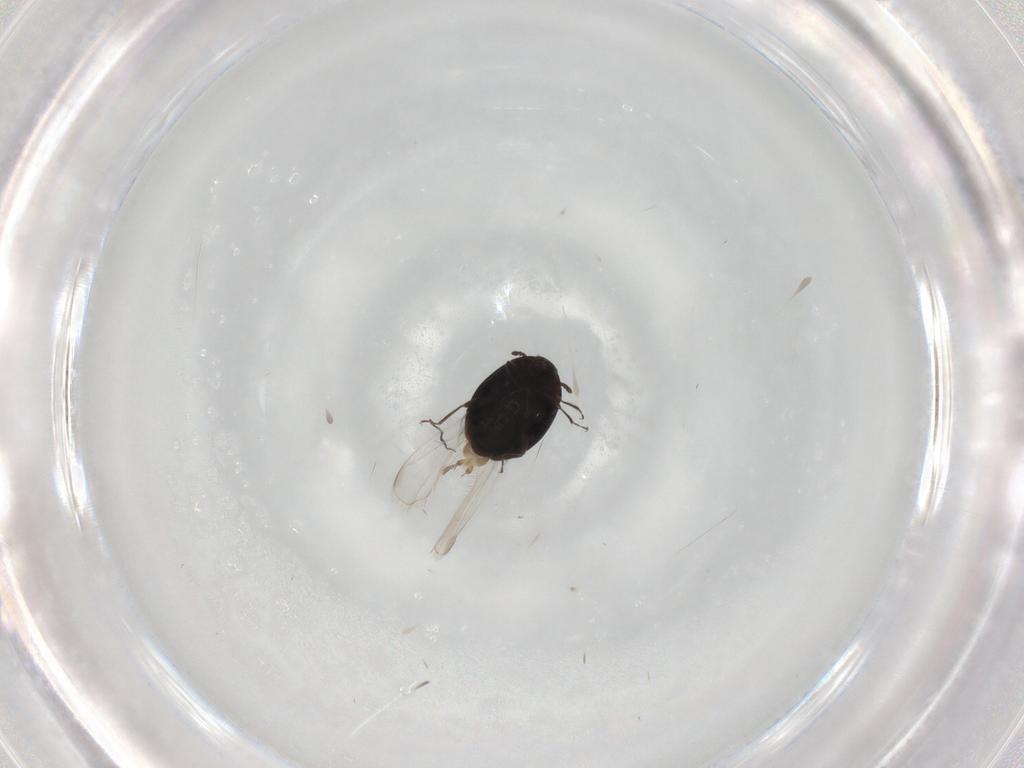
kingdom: Animalia
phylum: Arthropoda
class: Insecta
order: Coleoptera
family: Corylophidae
